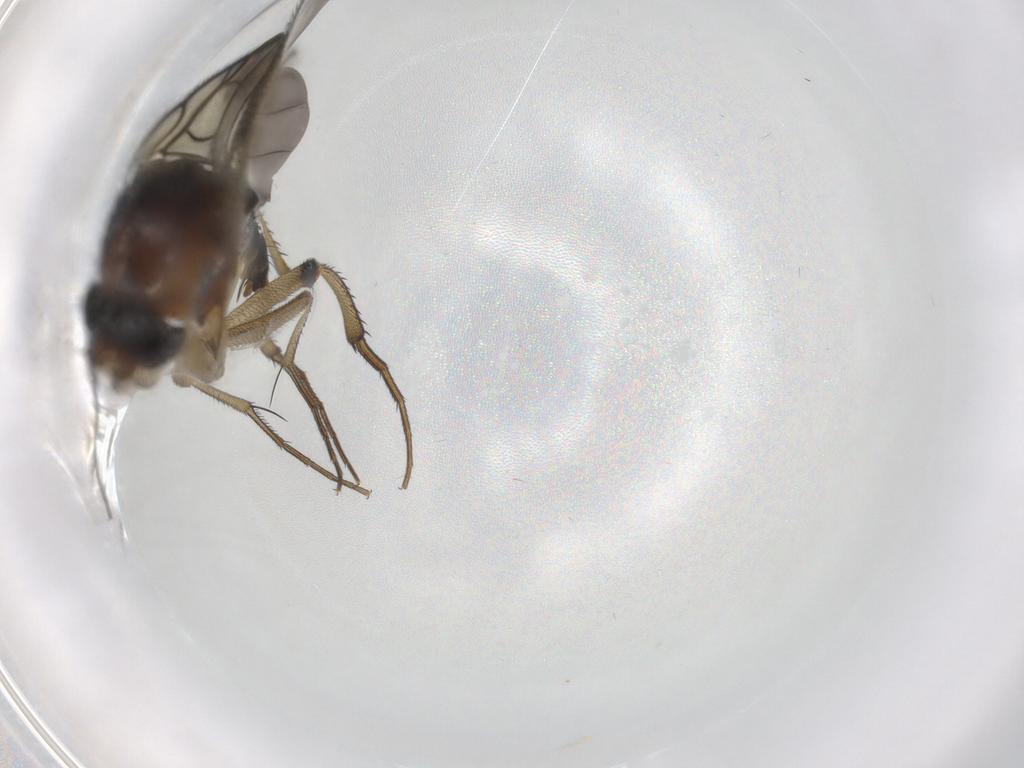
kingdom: Animalia
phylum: Arthropoda
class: Insecta
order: Diptera
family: Phoridae
